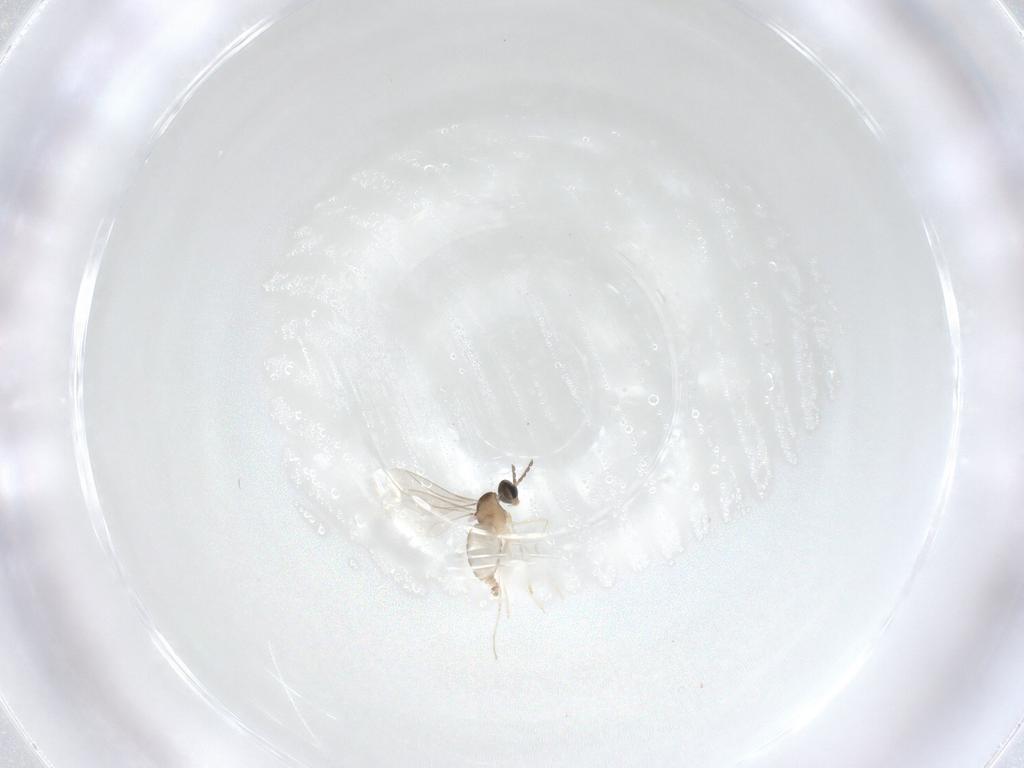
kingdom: Animalia
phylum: Arthropoda
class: Insecta
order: Diptera
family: Cecidomyiidae
